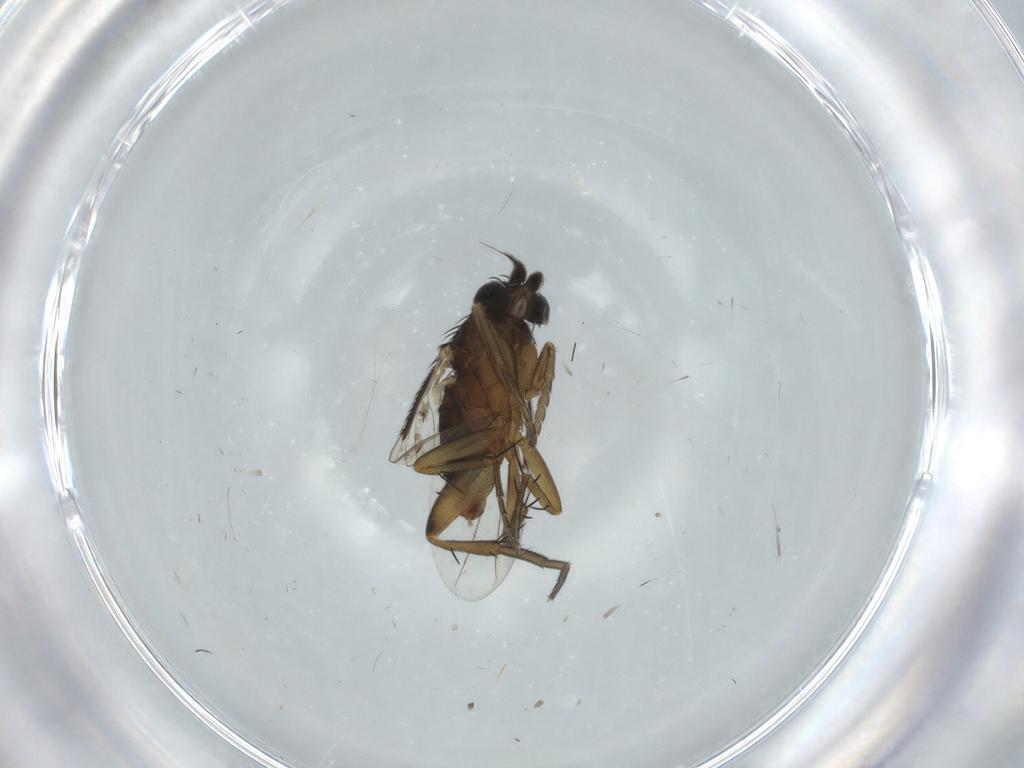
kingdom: Animalia
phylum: Arthropoda
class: Insecta
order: Diptera
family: Phoridae
